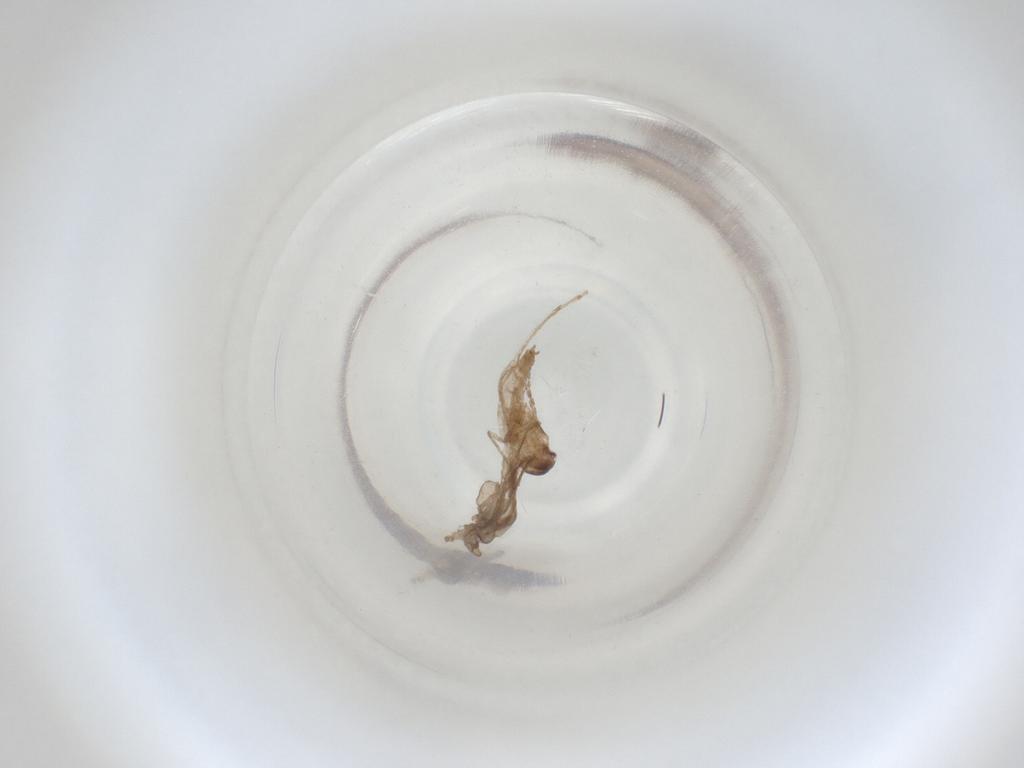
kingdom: Animalia
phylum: Arthropoda
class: Insecta
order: Diptera
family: Cecidomyiidae
